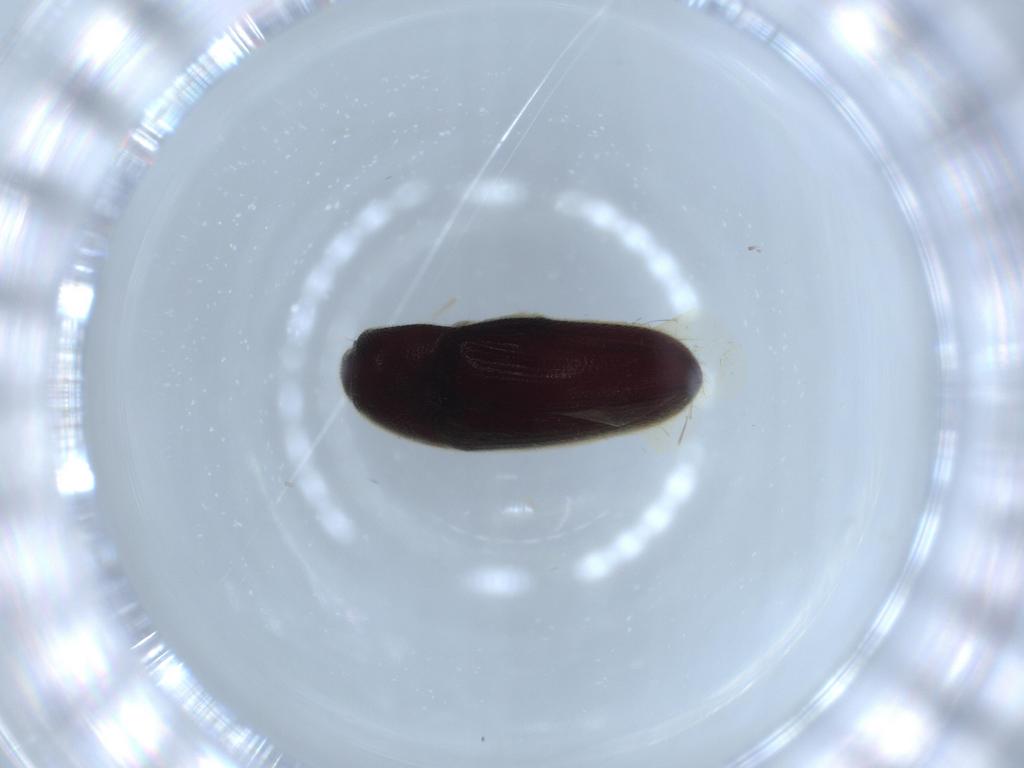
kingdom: Animalia
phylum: Arthropoda
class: Insecta
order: Coleoptera
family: Throscidae
